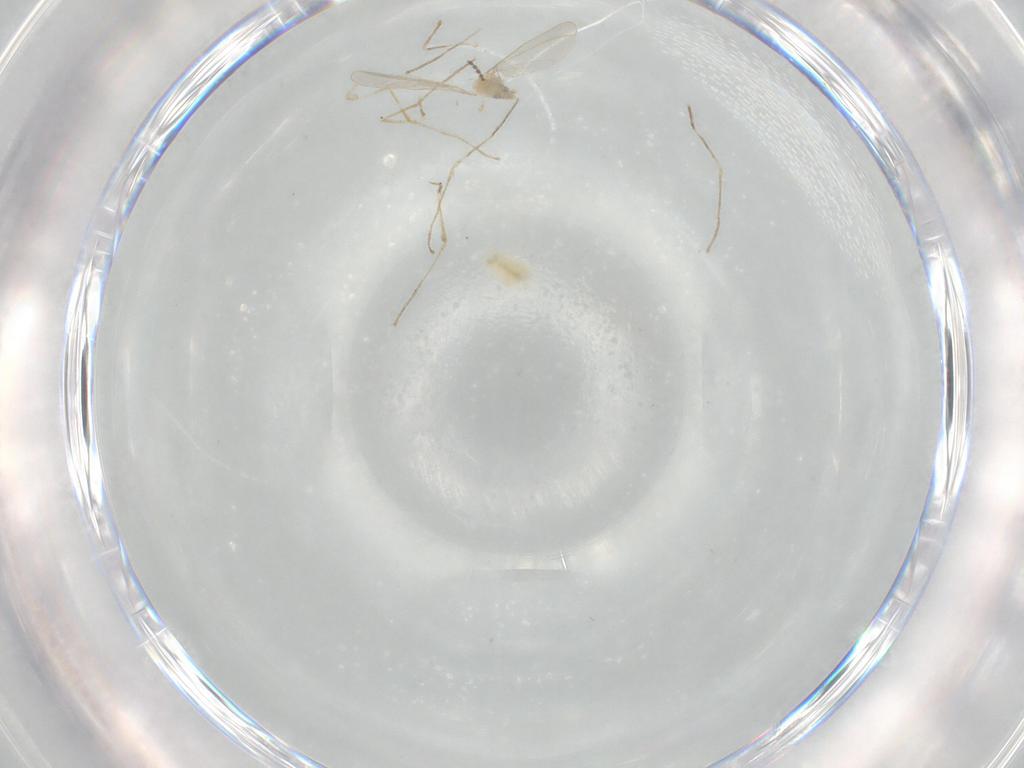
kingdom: Animalia
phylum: Arthropoda
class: Insecta
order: Diptera
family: Cecidomyiidae
